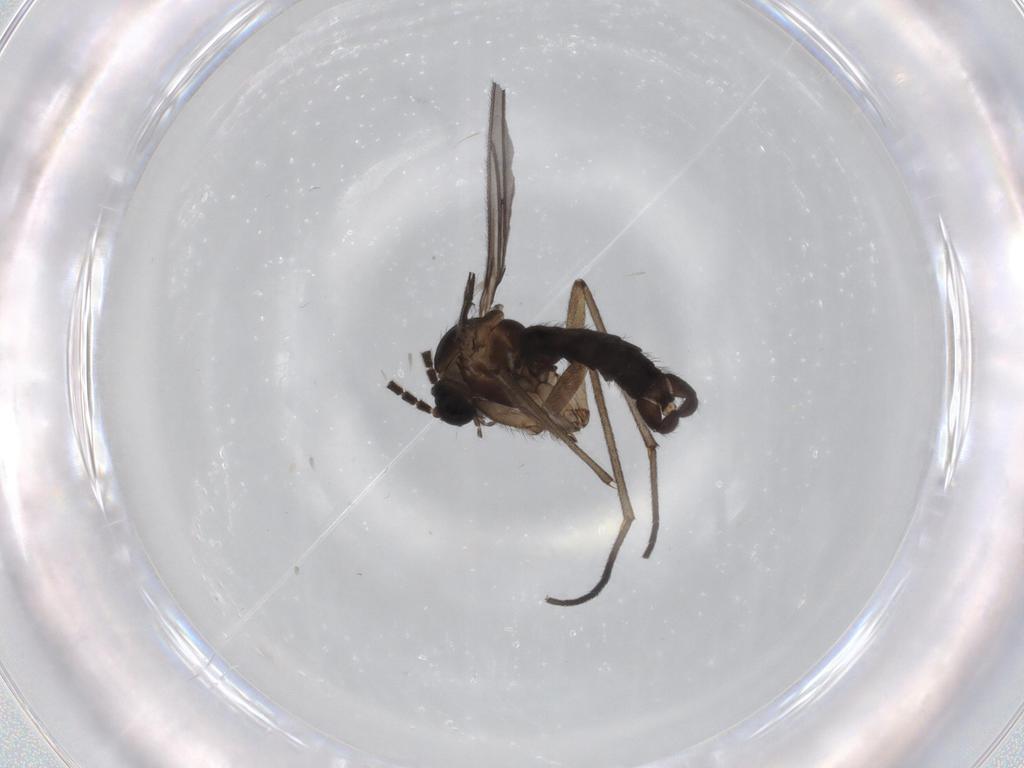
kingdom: Animalia
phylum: Arthropoda
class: Insecta
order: Diptera
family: Sciaridae
